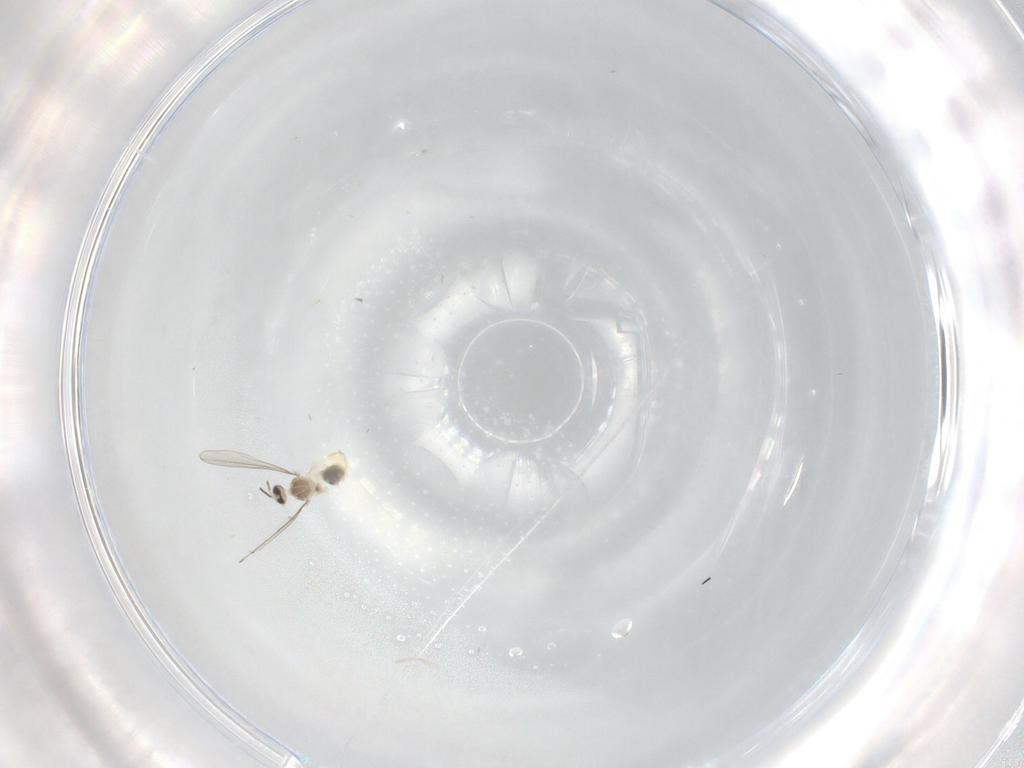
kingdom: Animalia
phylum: Arthropoda
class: Insecta
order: Diptera
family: Cecidomyiidae
